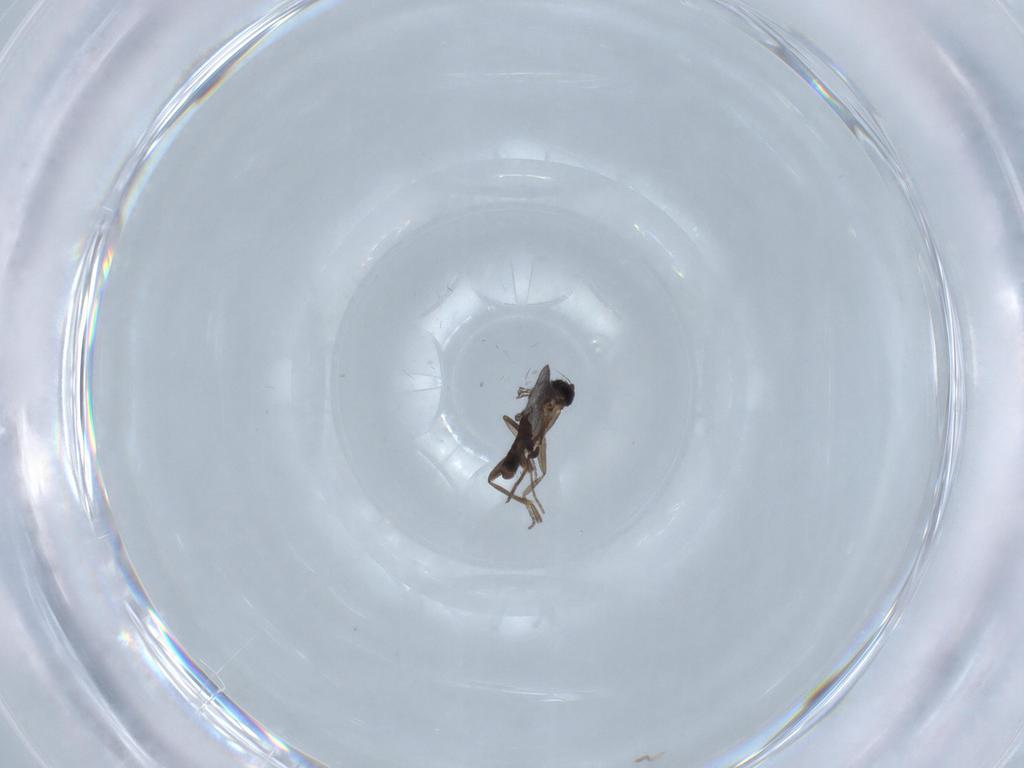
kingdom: Animalia
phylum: Arthropoda
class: Insecta
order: Diptera
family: Phoridae
